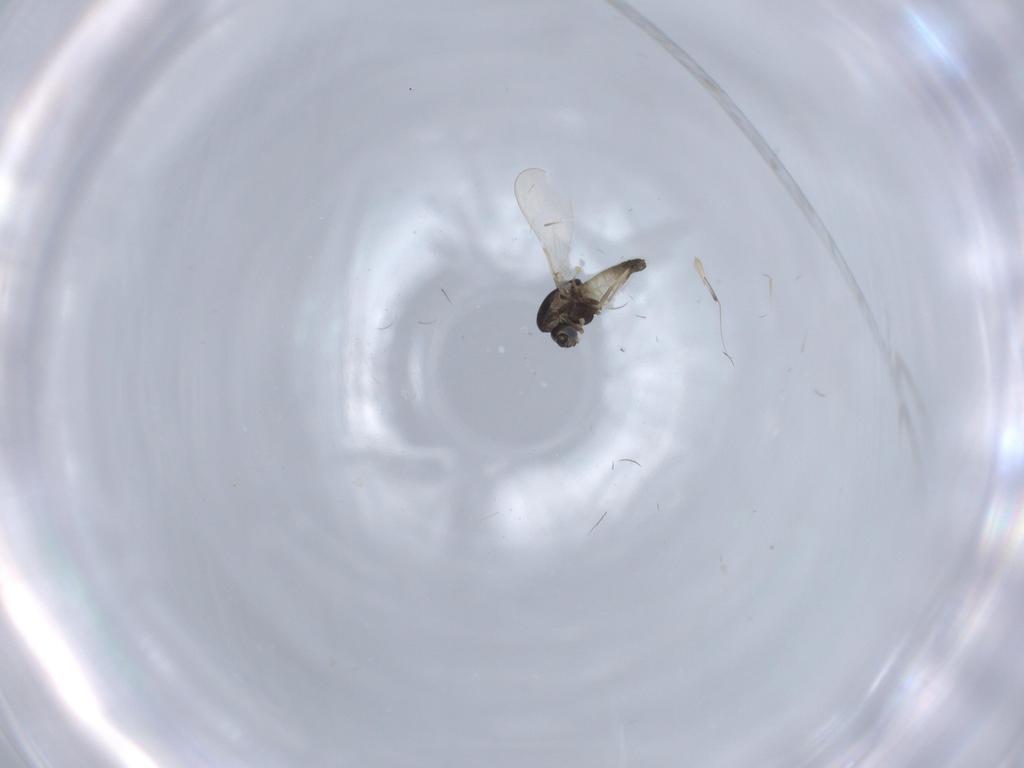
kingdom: Animalia
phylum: Arthropoda
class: Insecta
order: Diptera
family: Chironomidae
